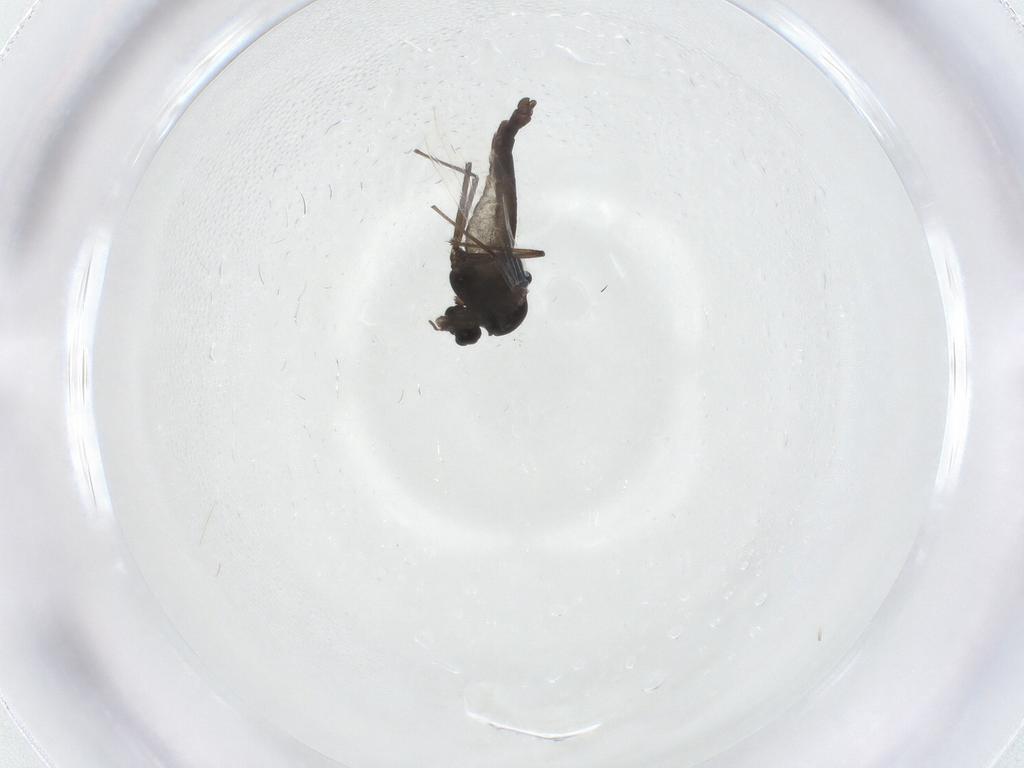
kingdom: Animalia
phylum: Arthropoda
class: Insecta
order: Diptera
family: Chironomidae
